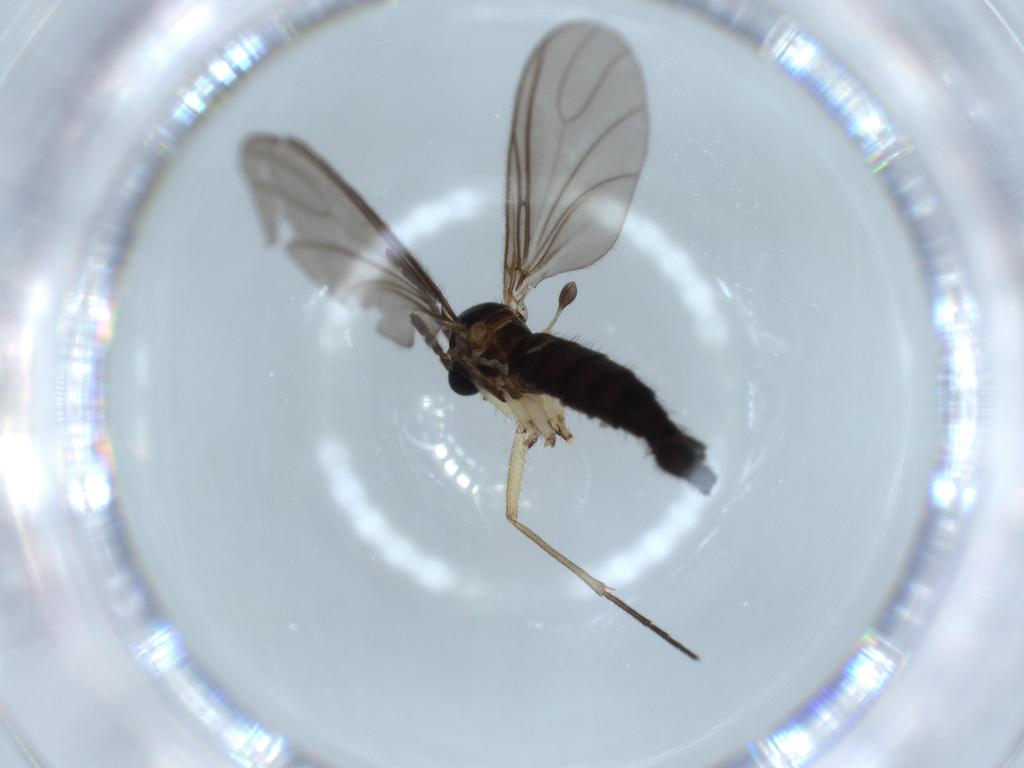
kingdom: Animalia
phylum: Arthropoda
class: Insecta
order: Diptera
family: Sciaridae
